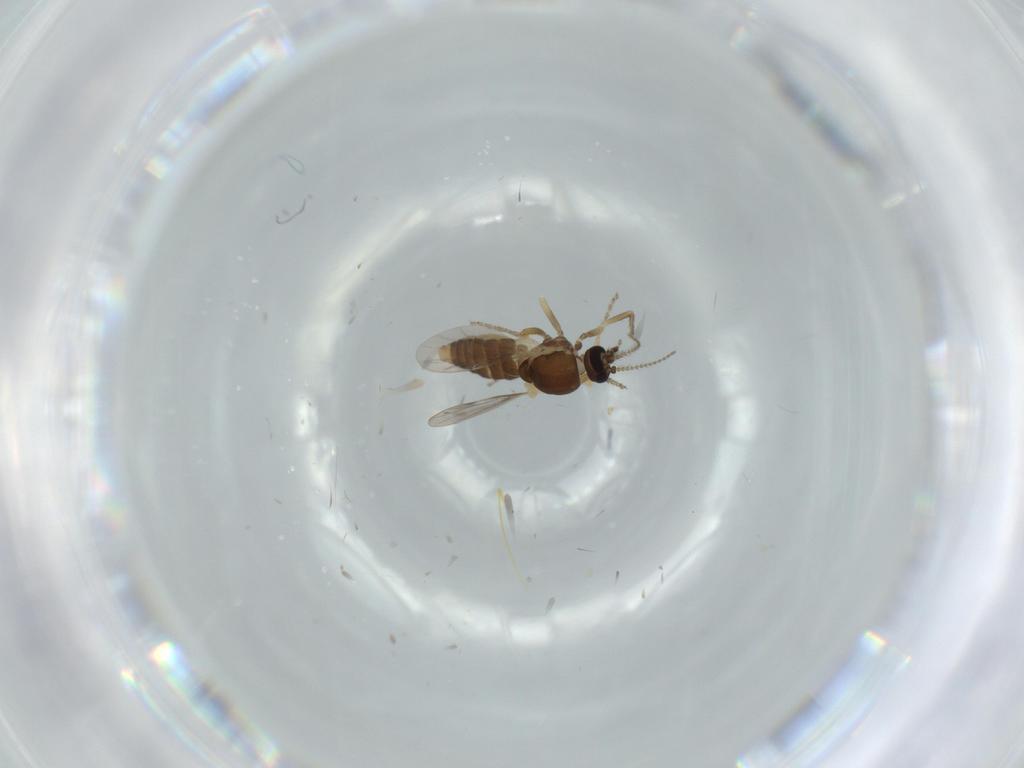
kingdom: Animalia
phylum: Arthropoda
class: Insecta
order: Diptera
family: Ceratopogonidae
